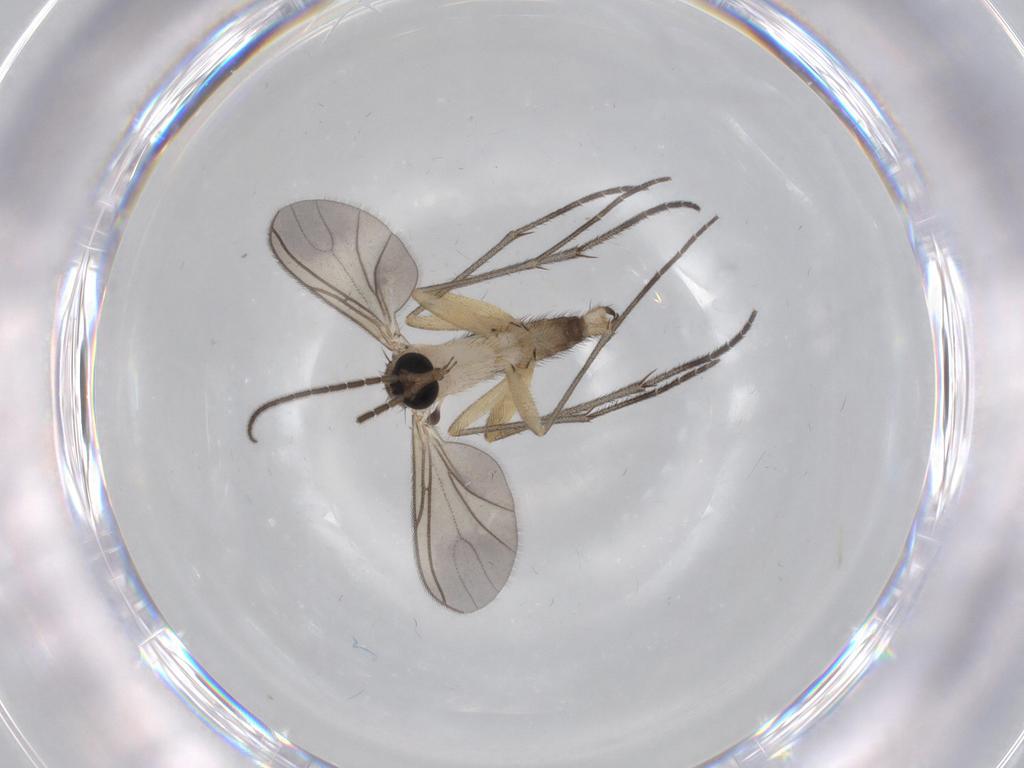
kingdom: Animalia
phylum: Arthropoda
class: Insecta
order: Diptera
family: Sciaridae
